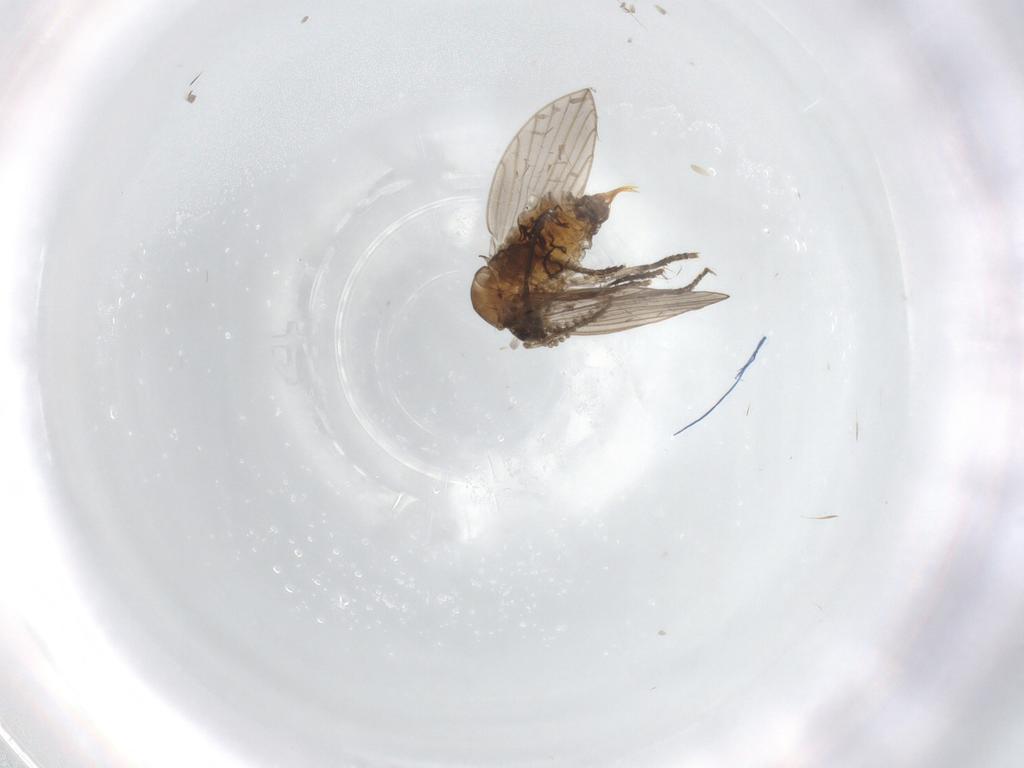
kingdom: Animalia
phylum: Arthropoda
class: Insecta
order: Diptera
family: Psychodidae
